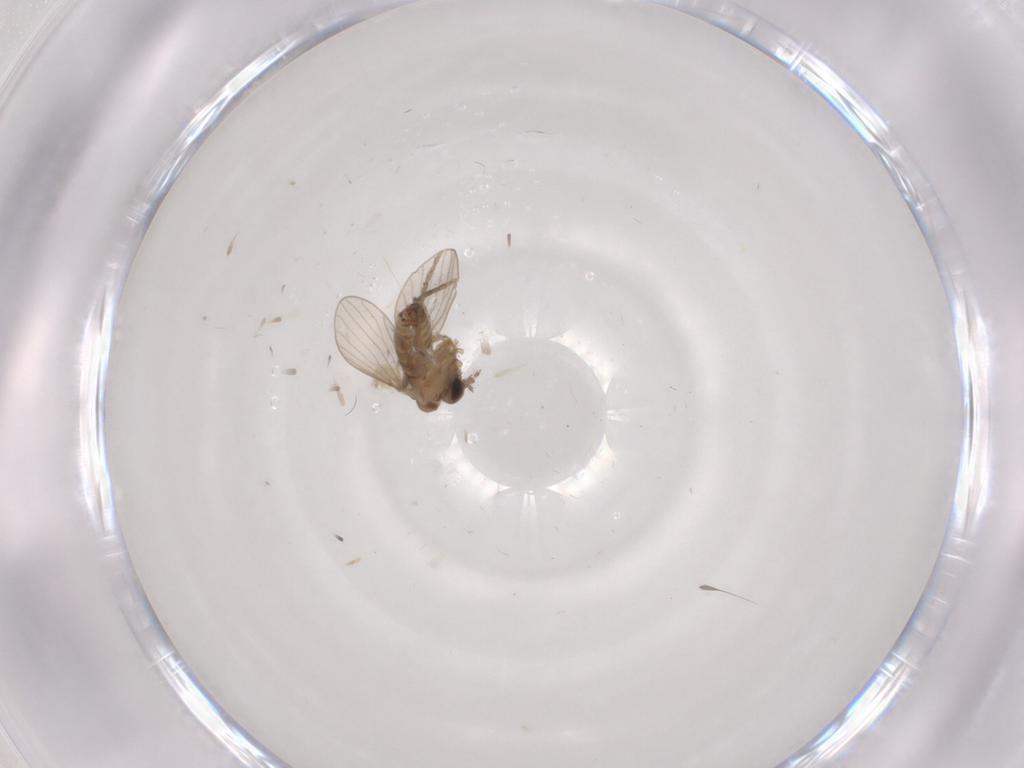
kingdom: Animalia
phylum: Arthropoda
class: Insecta
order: Diptera
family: Psychodidae
